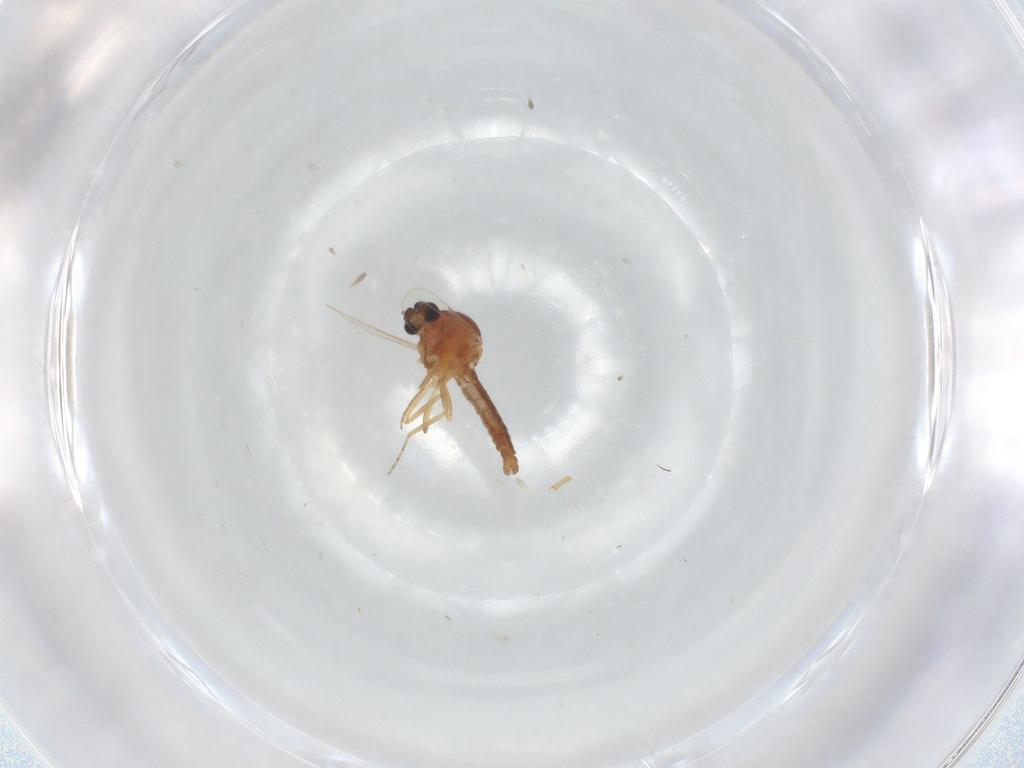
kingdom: Animalia
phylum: Arthropoda
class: Insecta
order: Diptera
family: Ceratopogonidae
